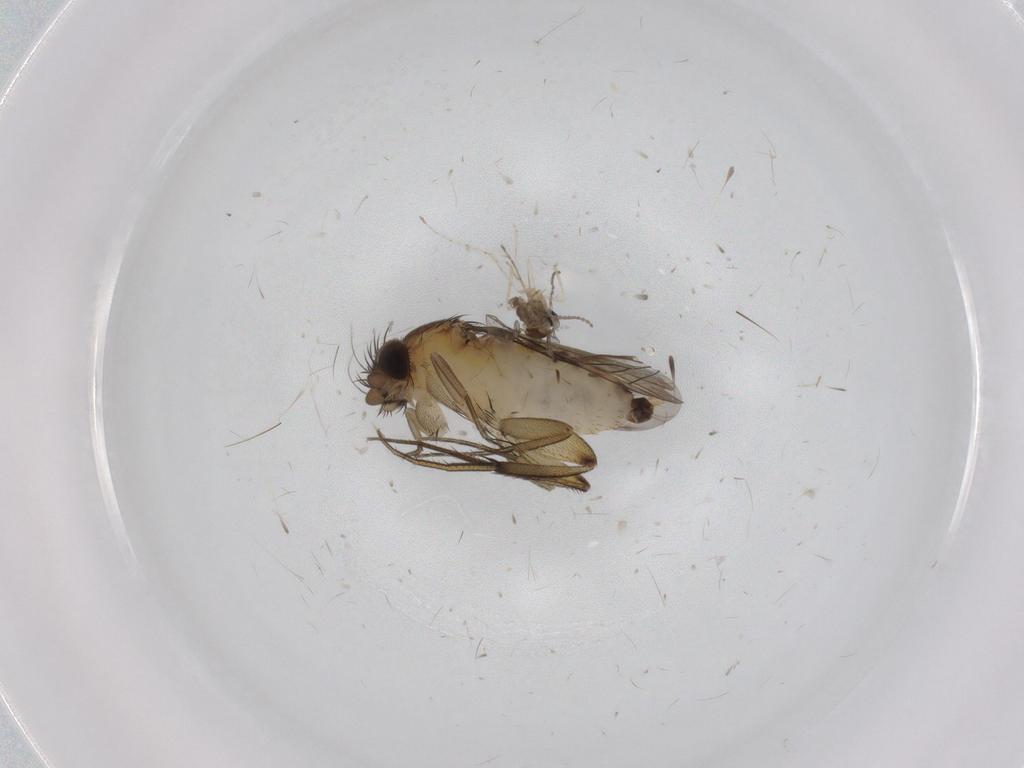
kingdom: Animalia
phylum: Arthropoda
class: Insecta
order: Diptera
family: Phoridae
